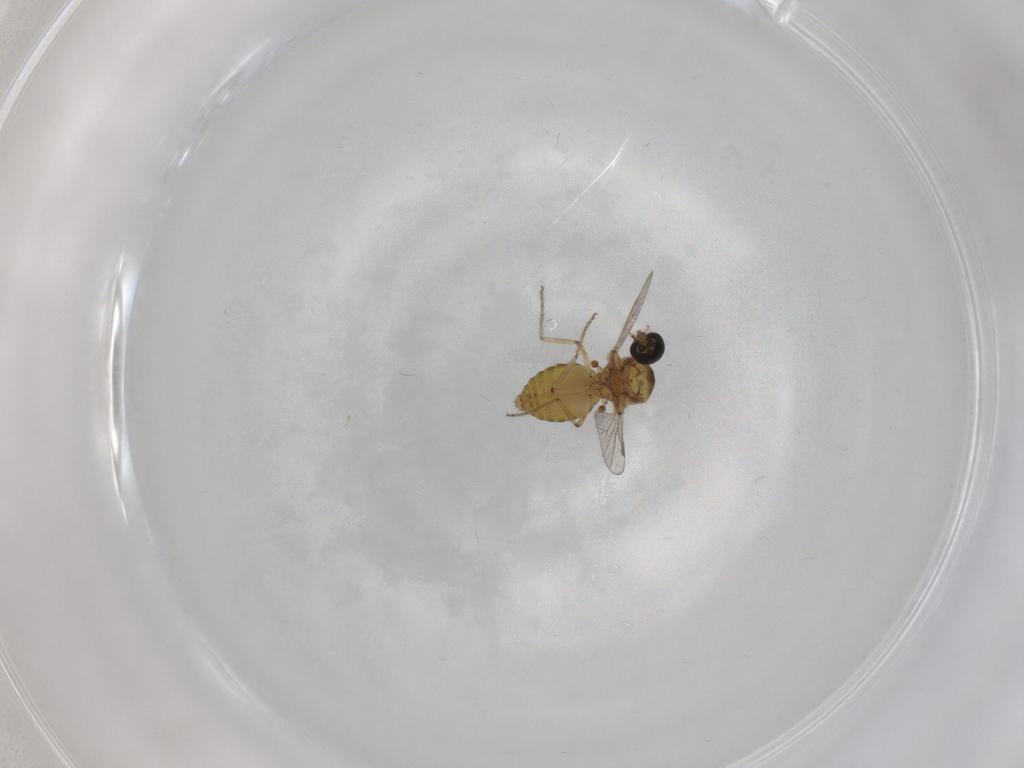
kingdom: Animalia
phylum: Arthropoda
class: Insecta
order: Diptera
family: Ceratopogonidae
